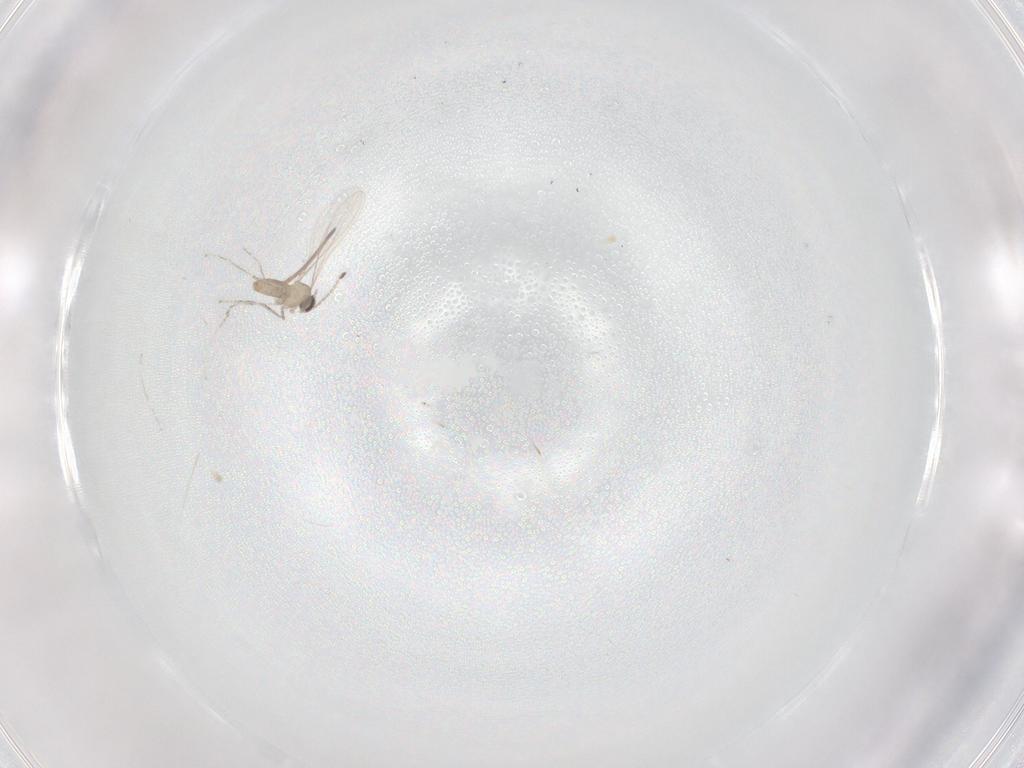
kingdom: Animalia
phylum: Arthropoda
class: Insecta
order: Diptera
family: Cecidomyiidae
